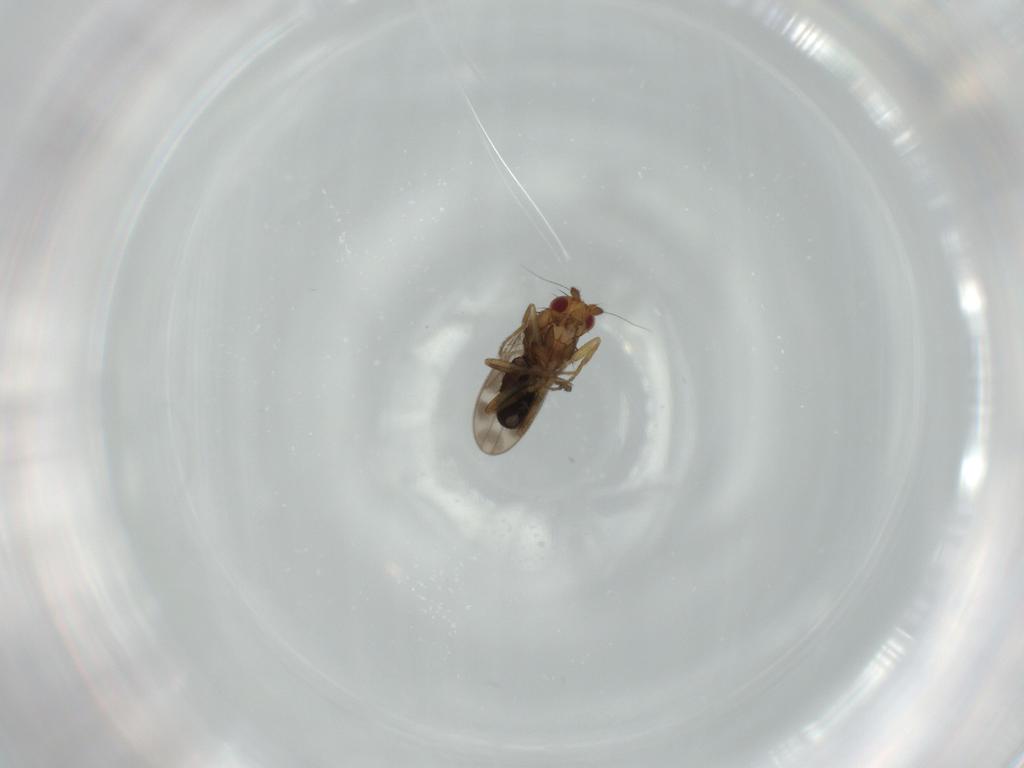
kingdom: Animalia
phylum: Arthropoda
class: Insecta
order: Diptera
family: Sphaeroceridae
